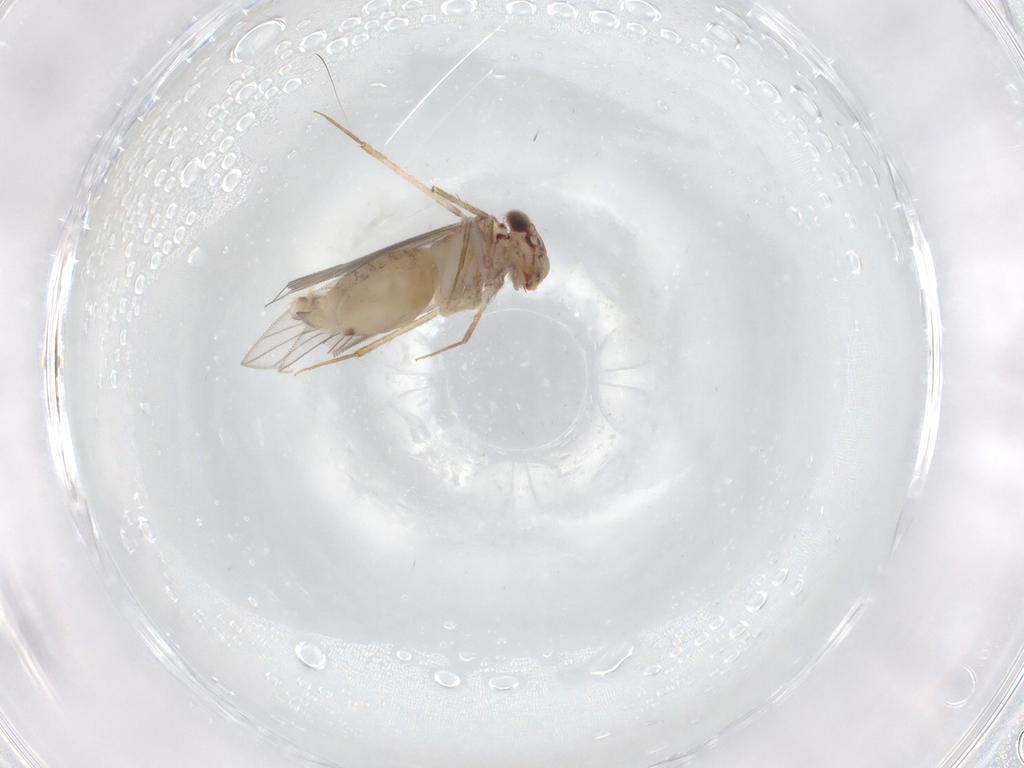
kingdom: Animalia
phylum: Arthropoda
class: Insecta
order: Psocodea
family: Lepidopsocidae
